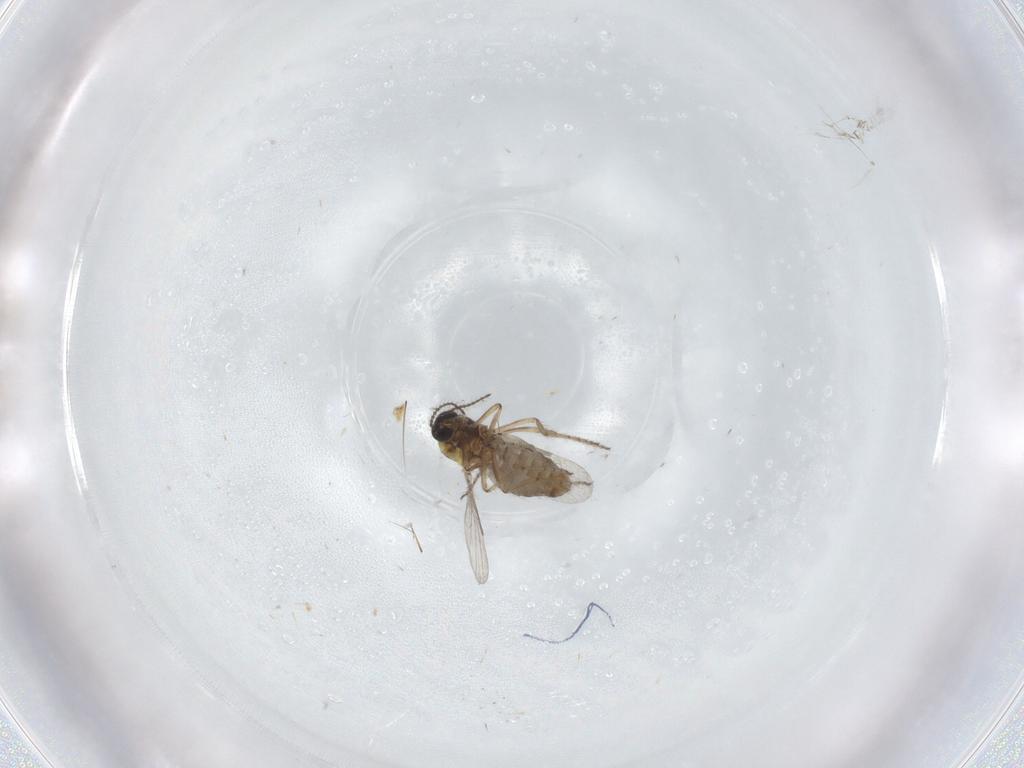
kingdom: Animalia
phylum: Arthropoda
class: Insecta
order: Diptera
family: Ceratopogonidae
